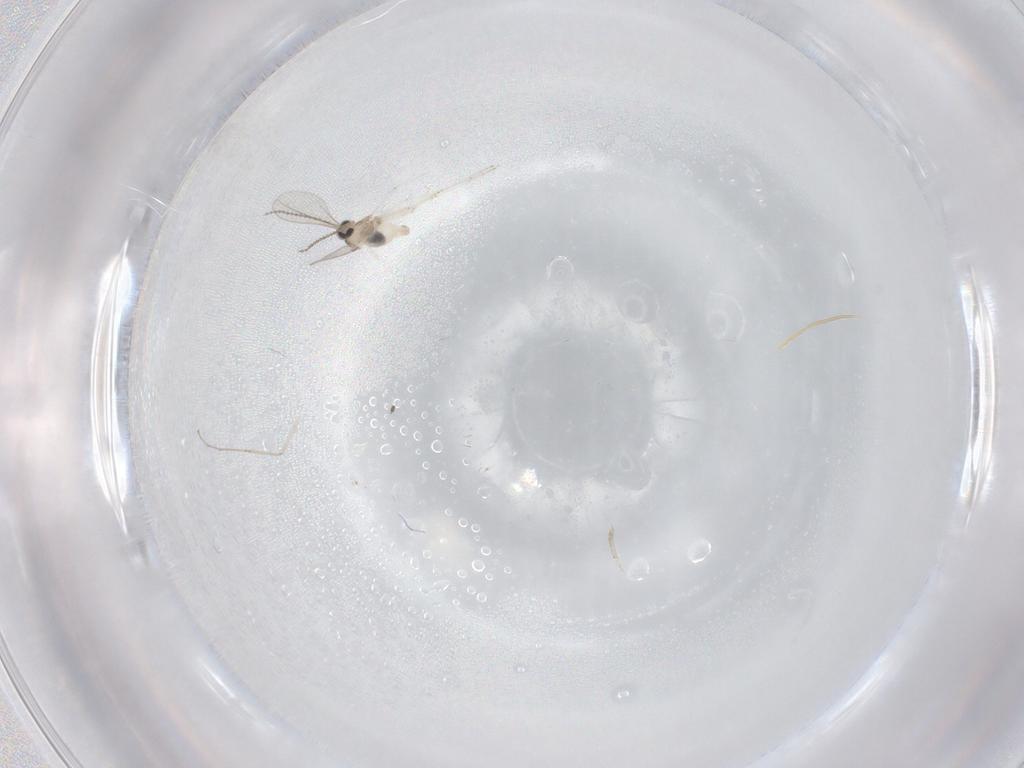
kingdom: Animalia
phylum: Arthropoda
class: Insecta
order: Diptera
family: Cecidomyiidae
